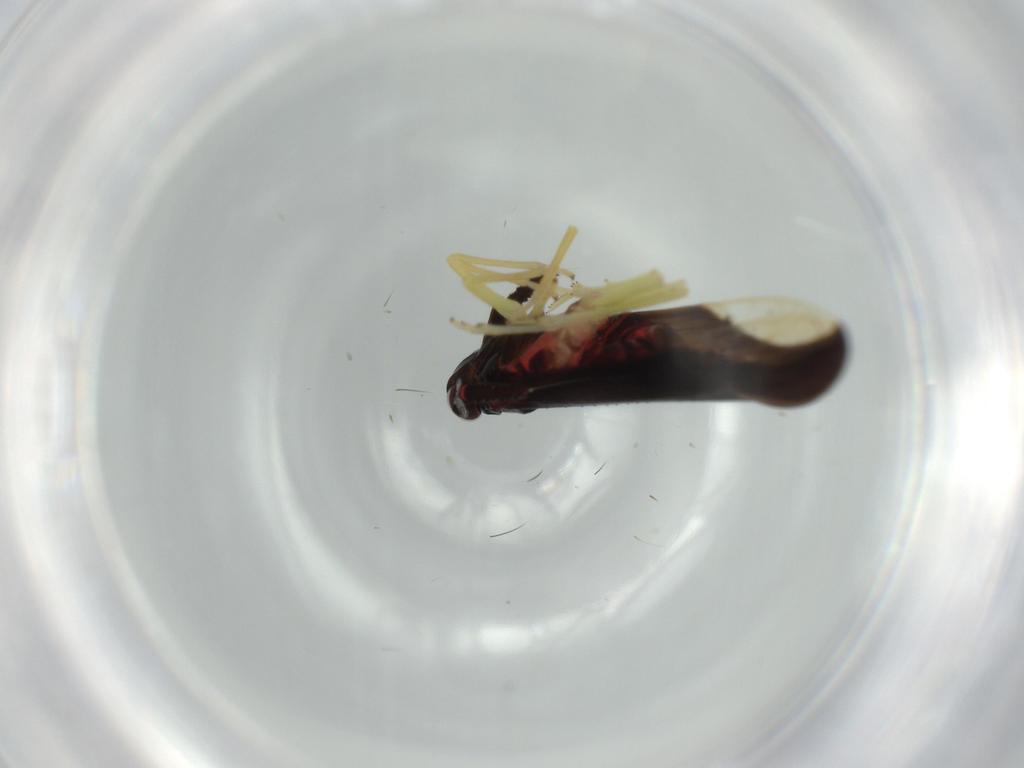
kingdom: Animalia
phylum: Arthropoda
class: Insecta
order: Hemiptera
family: Delphacidae
